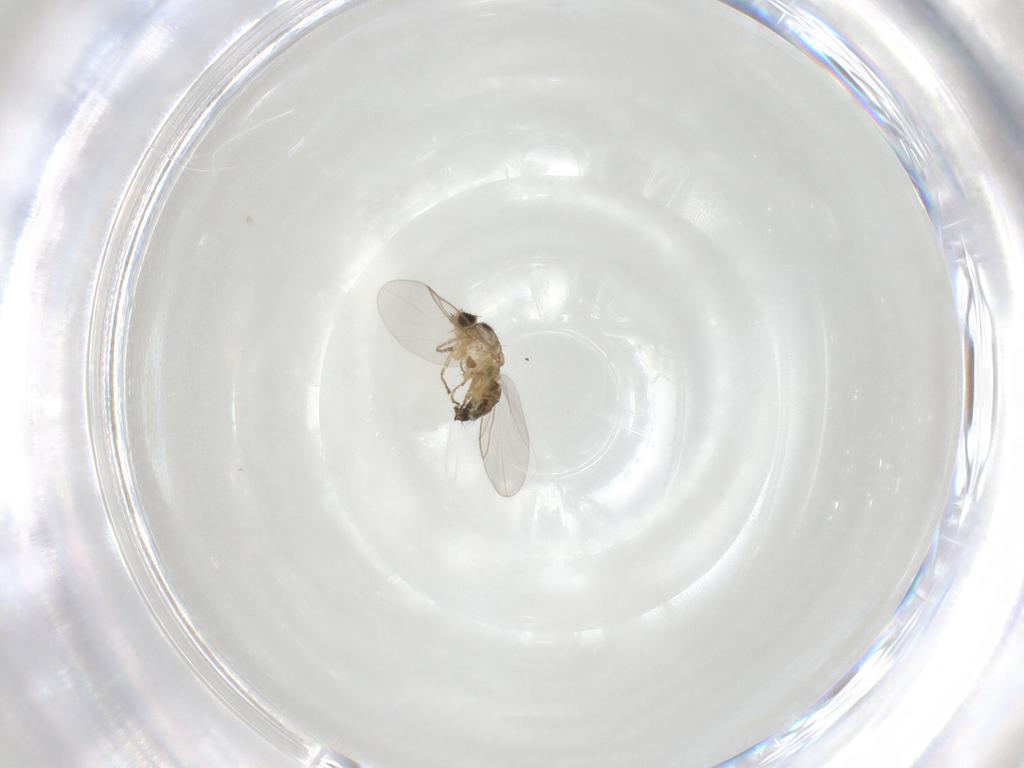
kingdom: Animalia
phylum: Arthropoda
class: Insecta
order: Diptera
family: Agromyzidae
